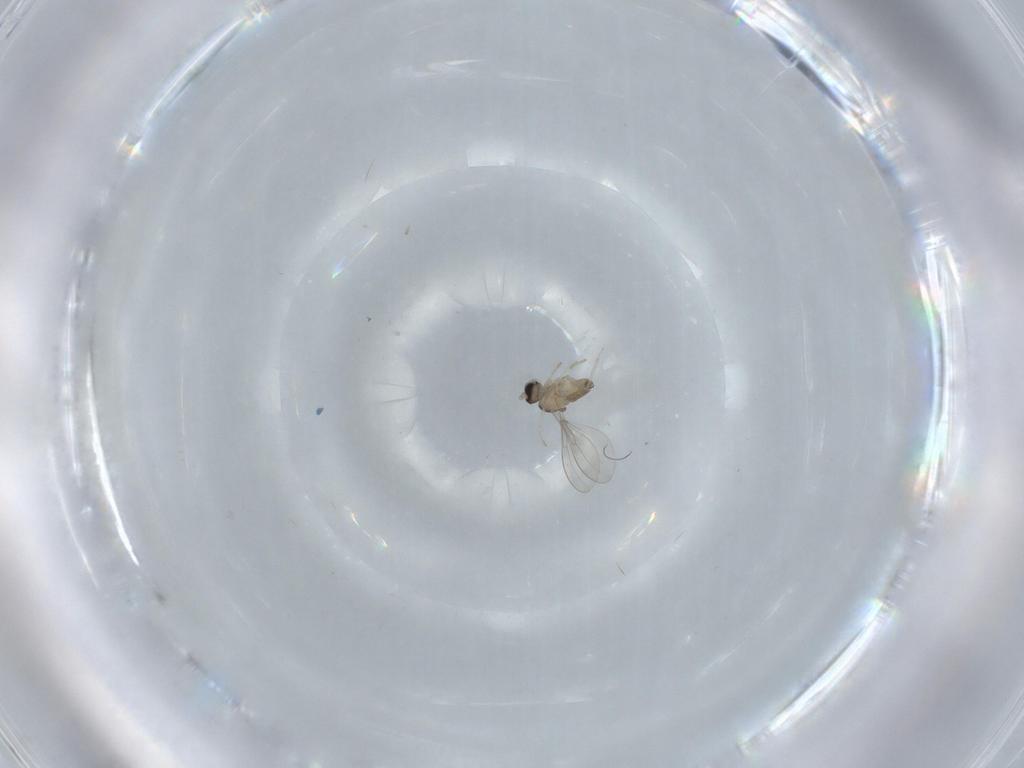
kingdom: Animalia
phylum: Arthropoda
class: Insecta
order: Diptera
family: Cecidomyiidae
